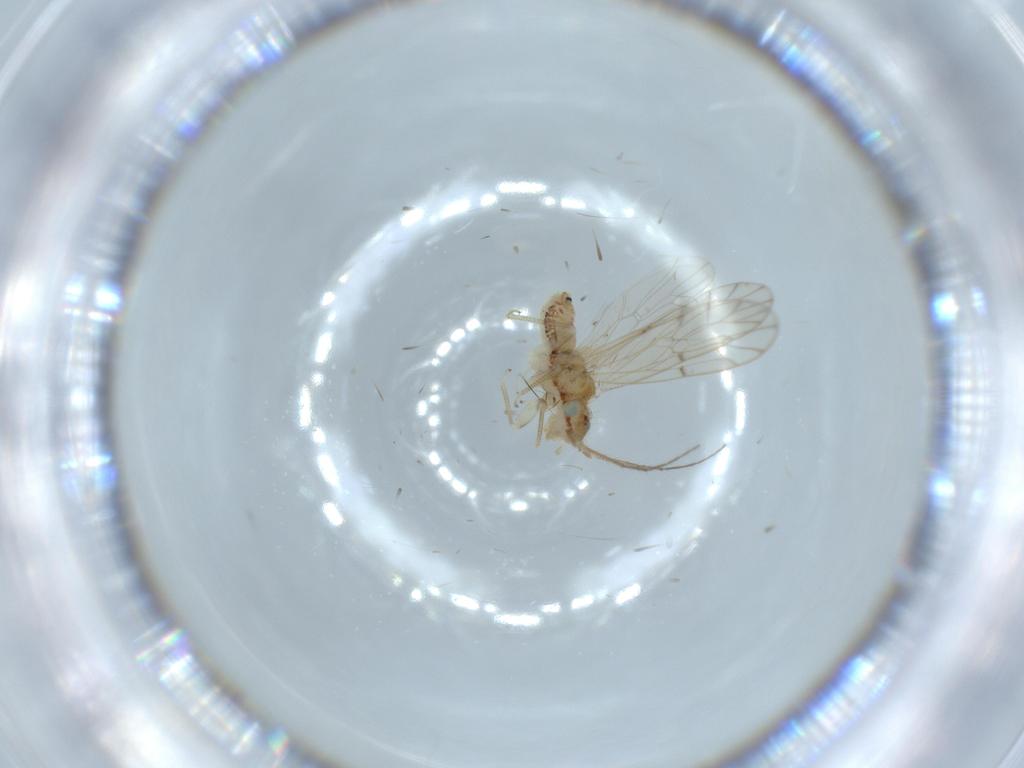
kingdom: Animalia
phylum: Arthropoda
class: Insecta
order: Psocodea
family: Ectopsocidae
